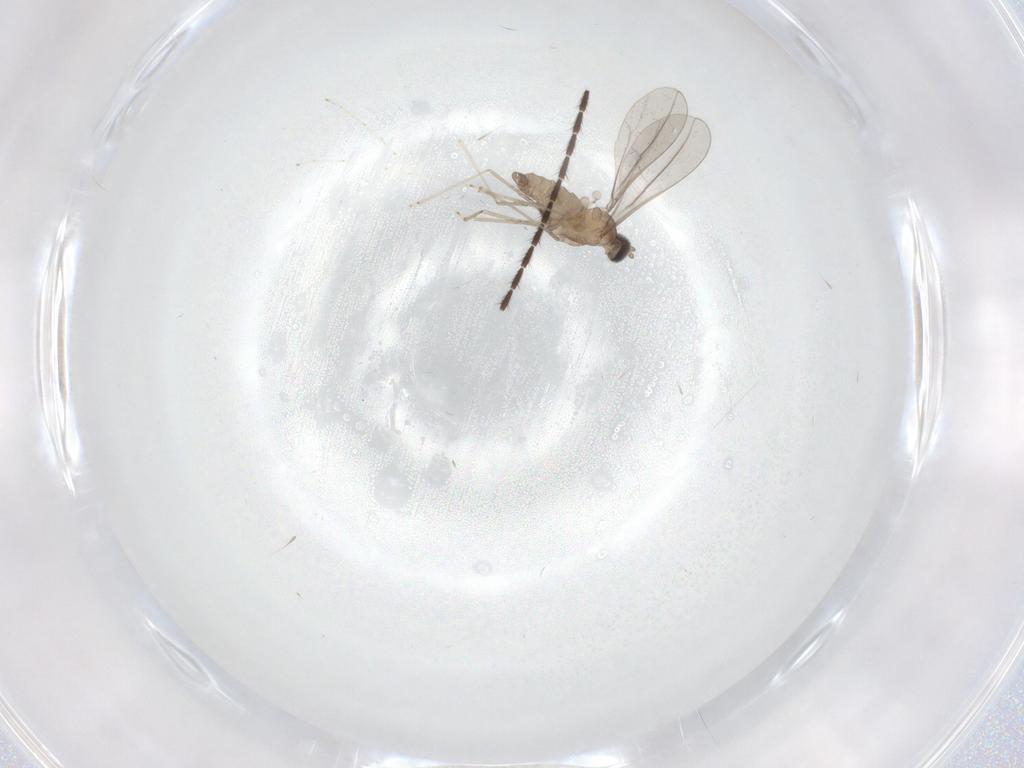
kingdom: Animalia
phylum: Arthropoda
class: Insecta
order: Diptera
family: Cecidomyiidae
